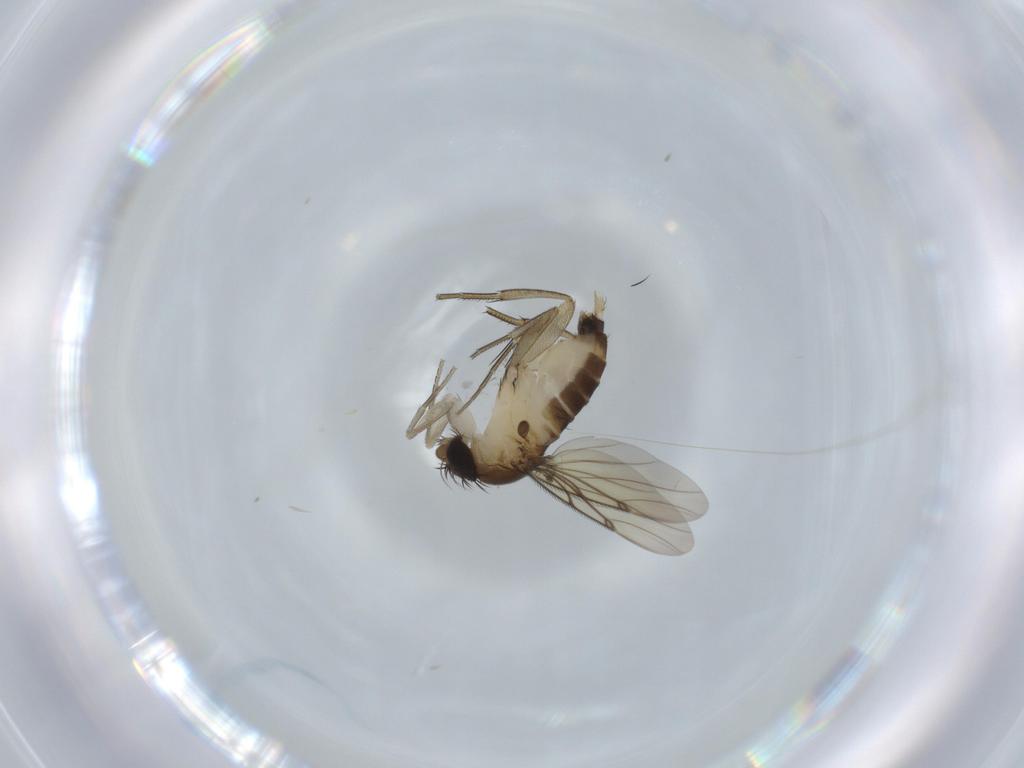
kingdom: Animalia
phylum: Arthropoda
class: Insecta
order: Diptera
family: Phoridae
